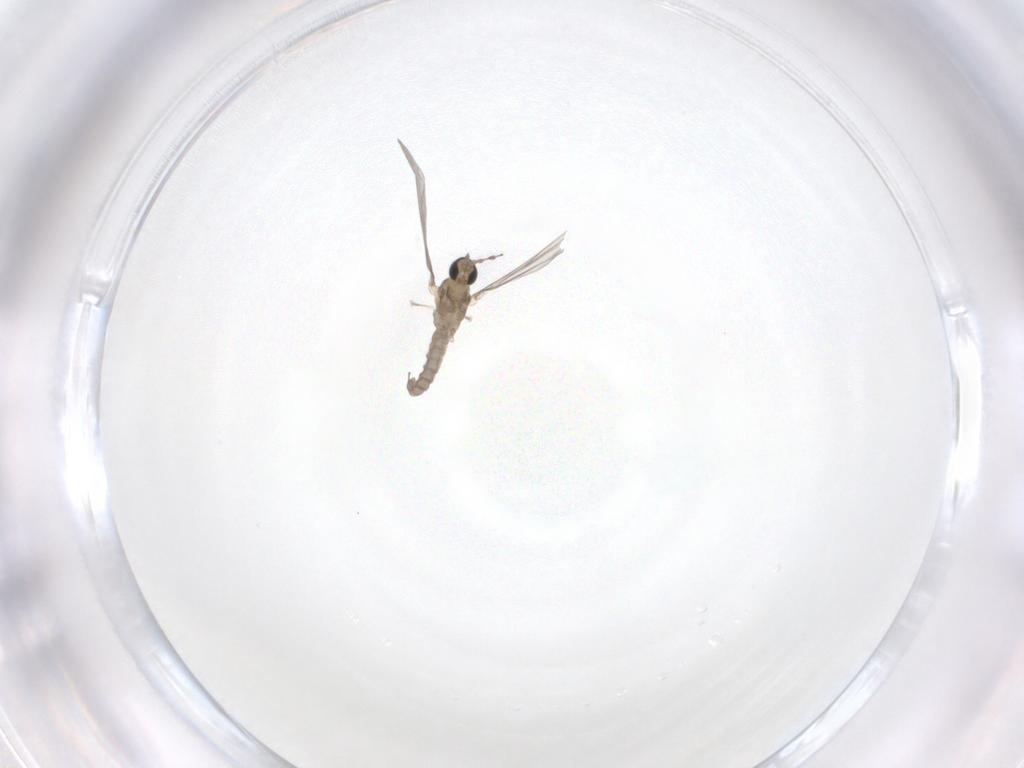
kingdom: Animalia
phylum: Arthropoda
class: Insecta
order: Diptera
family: Cecidomyiidae
